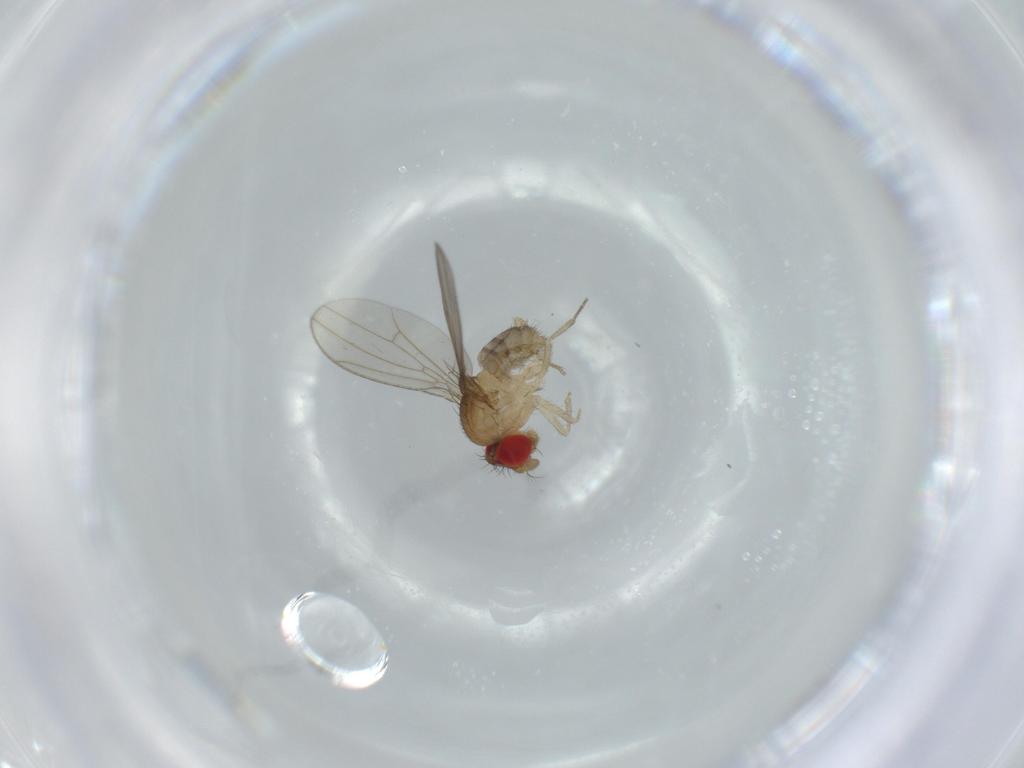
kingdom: Animalia
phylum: Arthropoda
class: Insecta
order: Diptera
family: Drosophilidae
